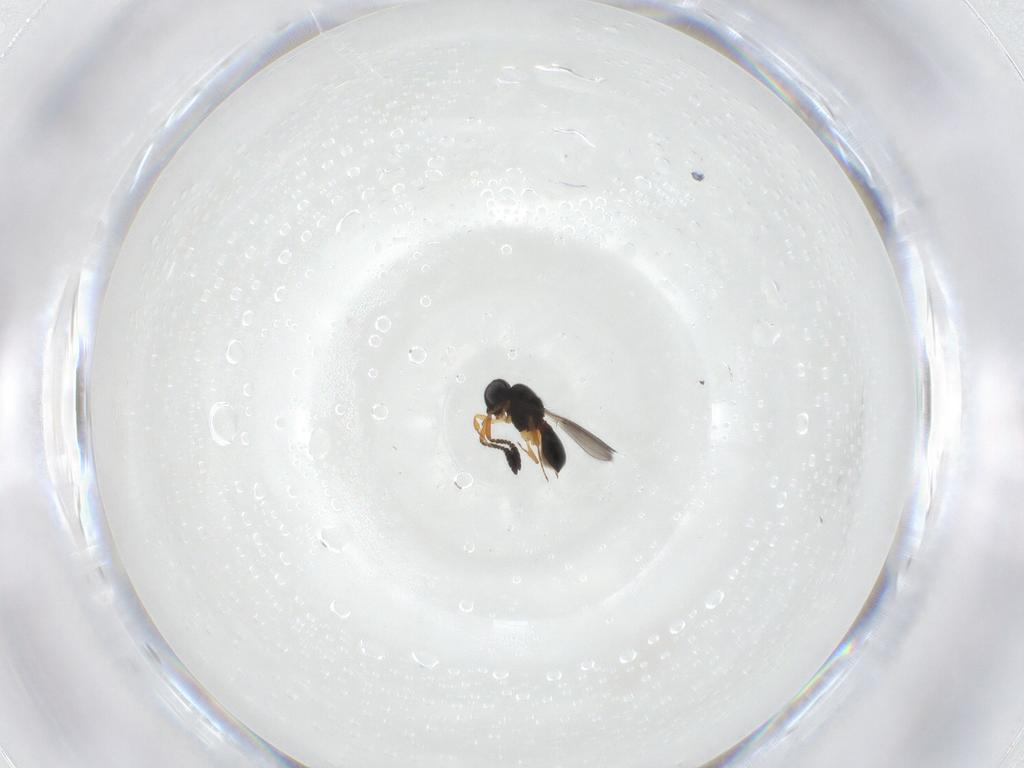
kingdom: Animalia
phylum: Arthropoda
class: Insecta
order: Hymenoptera
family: Scelionidae
